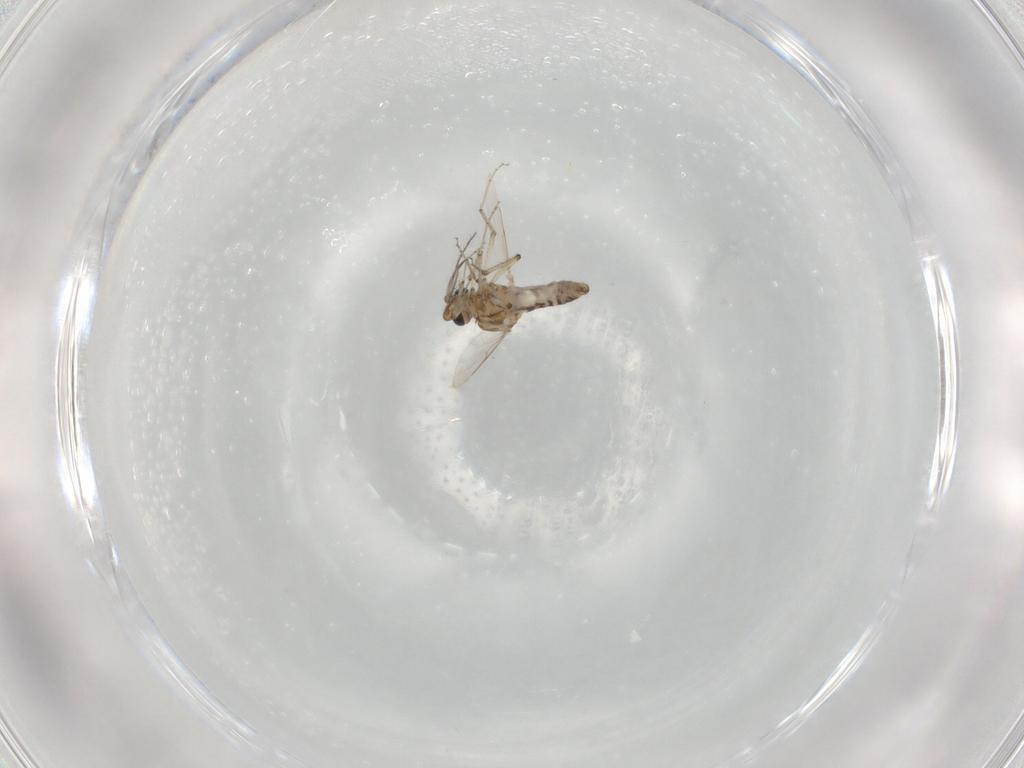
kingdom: Animalia
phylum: Arthropoda
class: Insecta
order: Diptera
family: Ceratopogonidae
